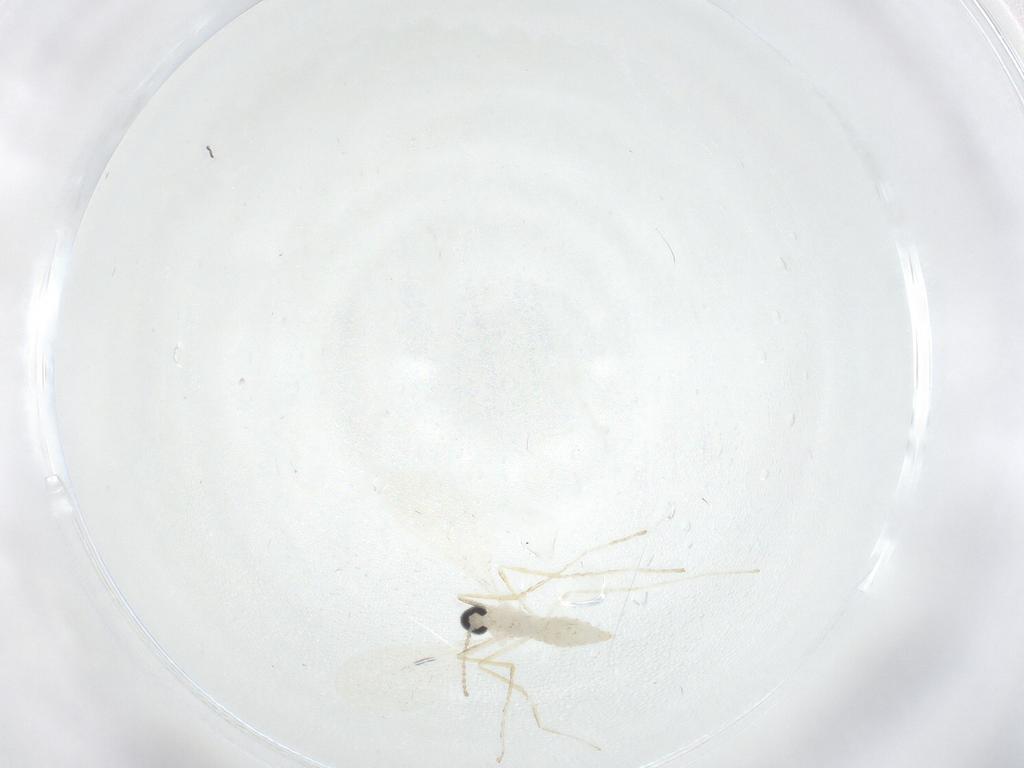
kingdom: Animalia
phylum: Arthropoda
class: Insecta
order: Diptera
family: Cecidomyiidae
